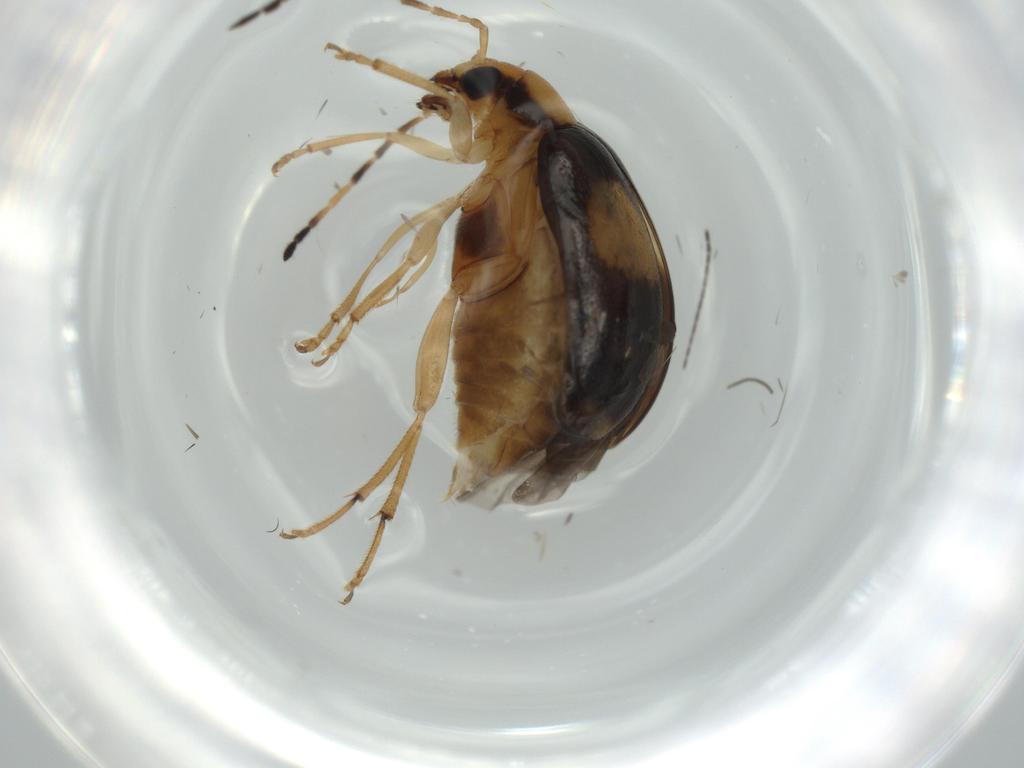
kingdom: Animalia
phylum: Arthropoda
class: Insecta
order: Coleoptera
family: Chrysomelidae
